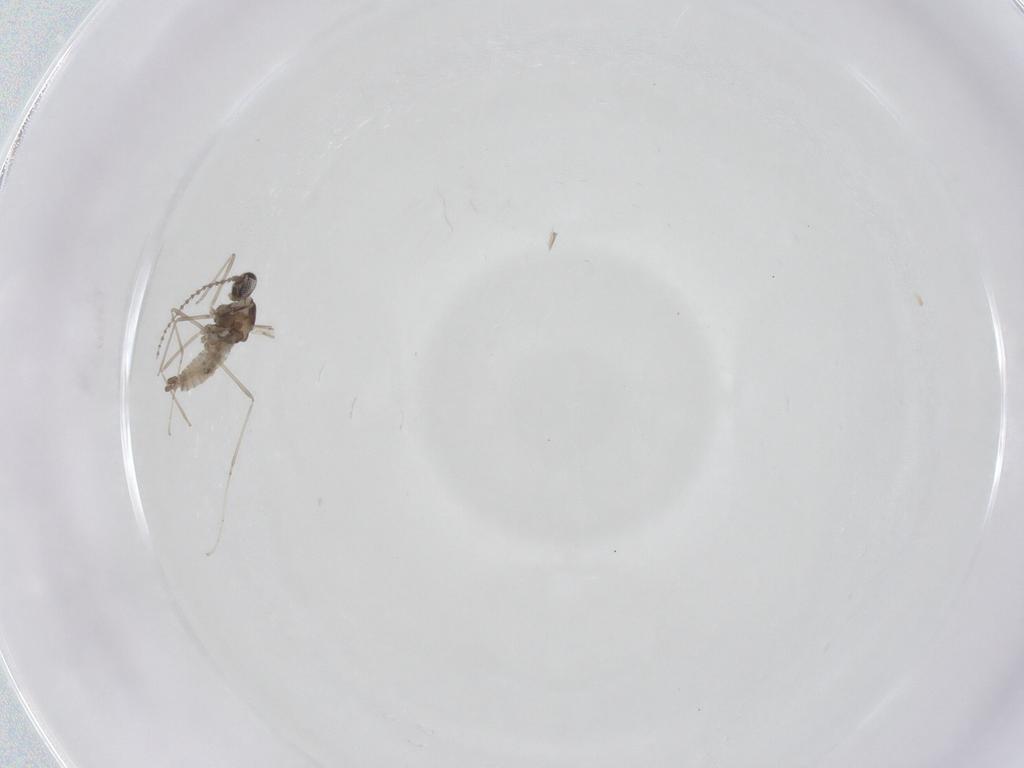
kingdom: Animalia
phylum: Arthropoda
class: Insecta
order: Diptera
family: Cecidomyiidae
